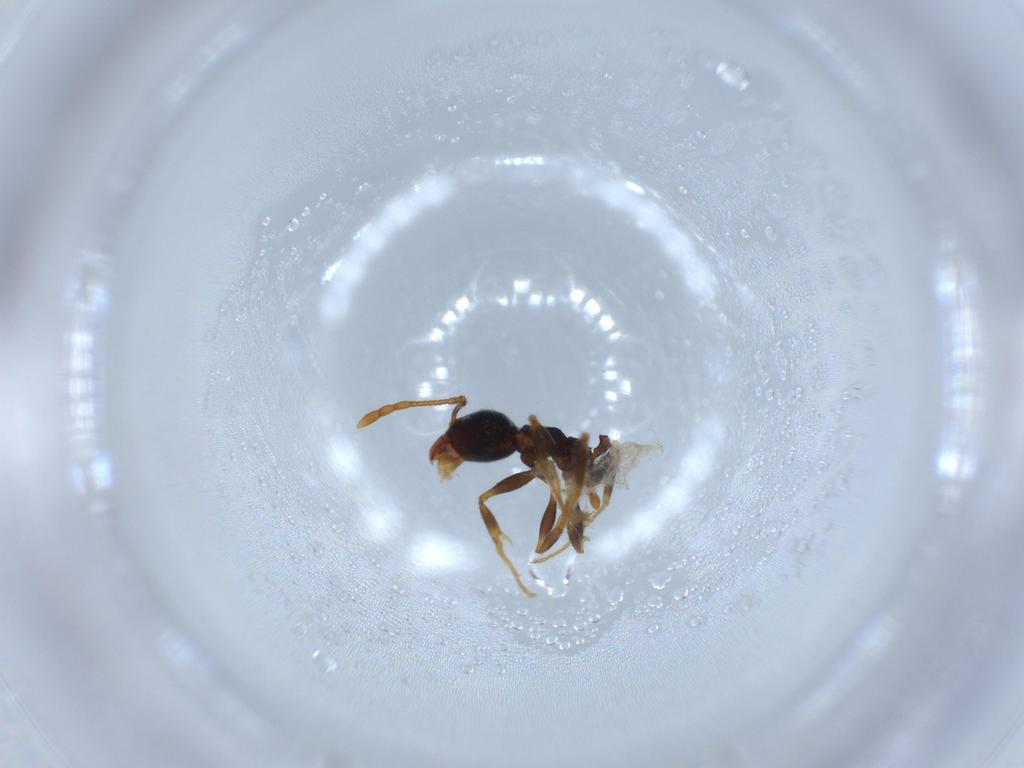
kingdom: Animalia
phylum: Arthropoda
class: Insecta
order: Hymenoptera
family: Formicidae
